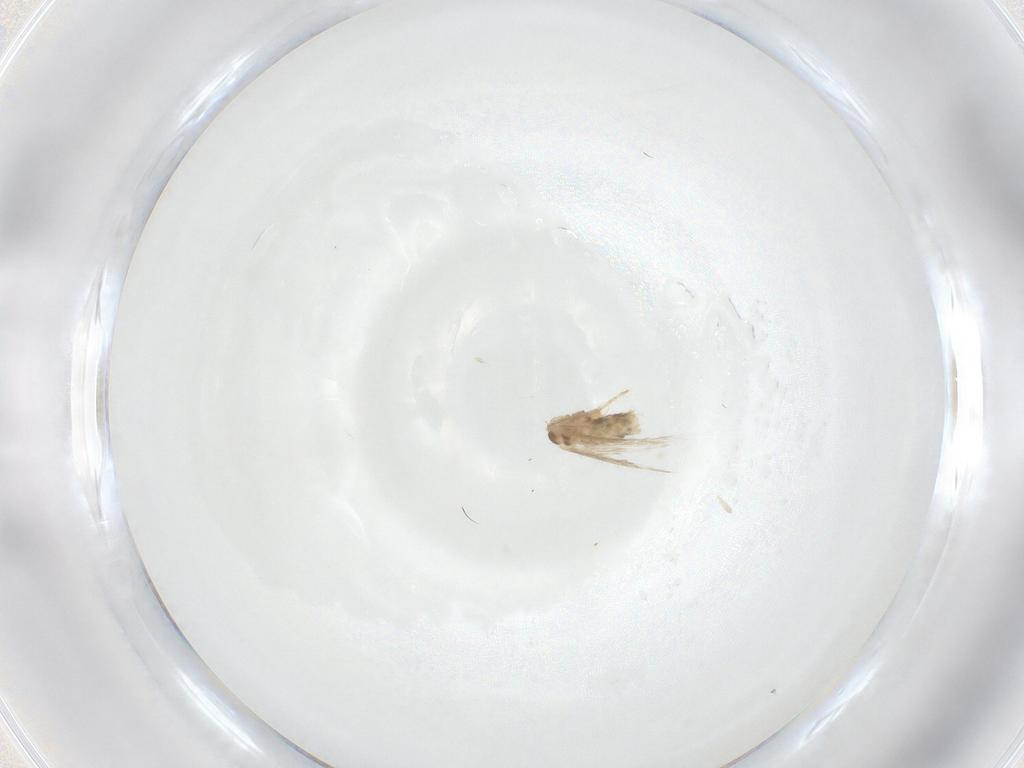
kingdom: Animalia
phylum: Arthropoda
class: Insecta
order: Lepidoptera
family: Nepticulidae
